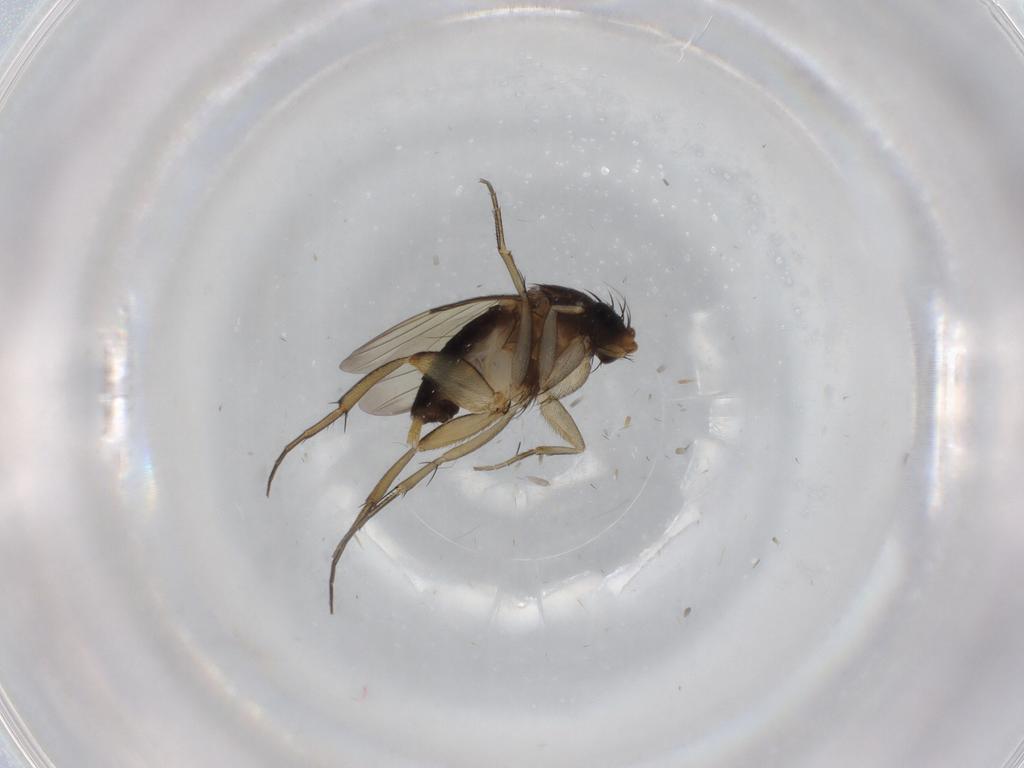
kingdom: Animalia
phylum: Arthropoda
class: Insecta
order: Diptera
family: Phoridae
